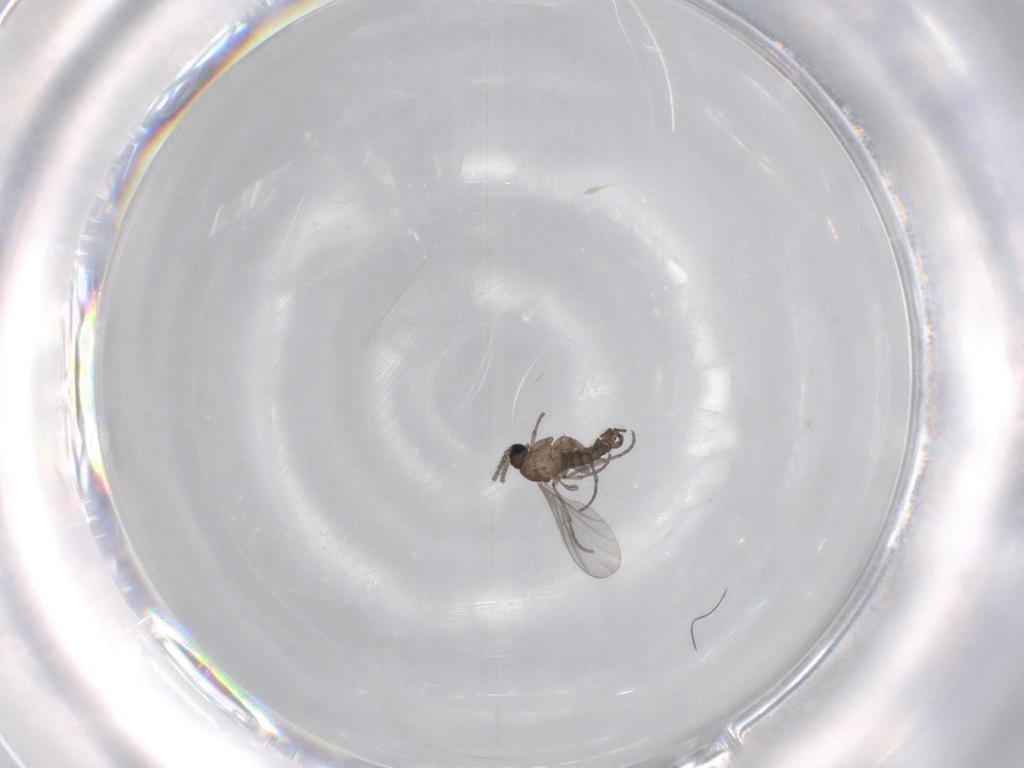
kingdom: Animalia
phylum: Arthropoda
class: Insecta
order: Diptera
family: Sciaridae
